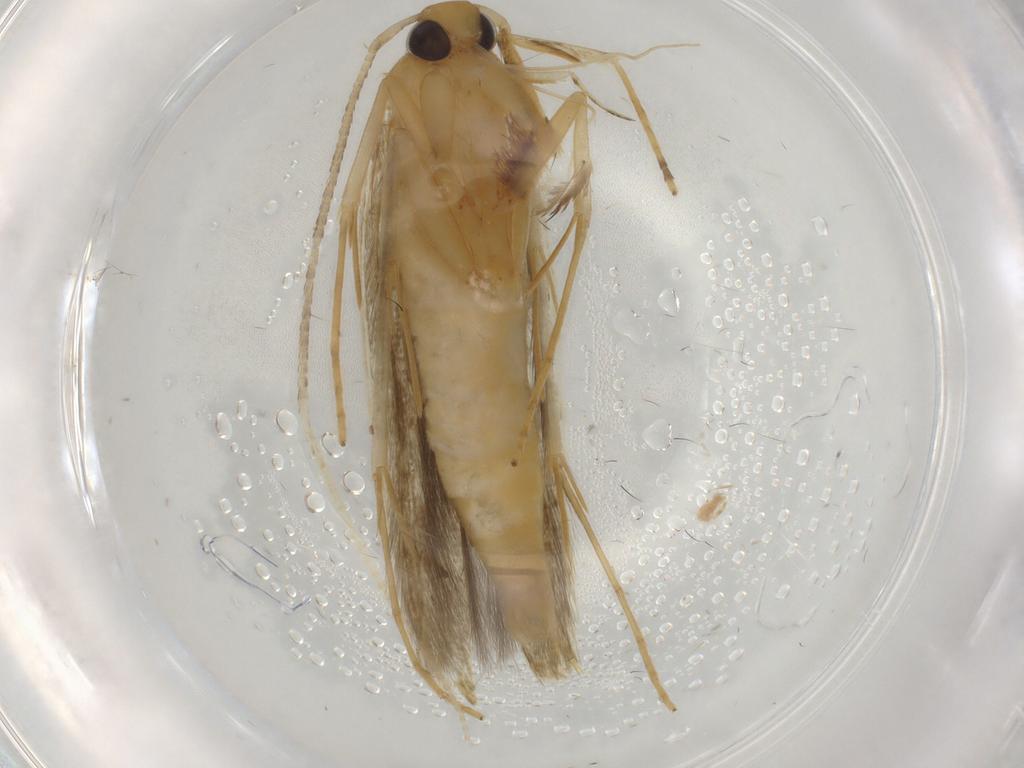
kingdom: Animalia
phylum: Arthropoda
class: Insecta
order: Lepidoptera
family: Pterolonchidae
